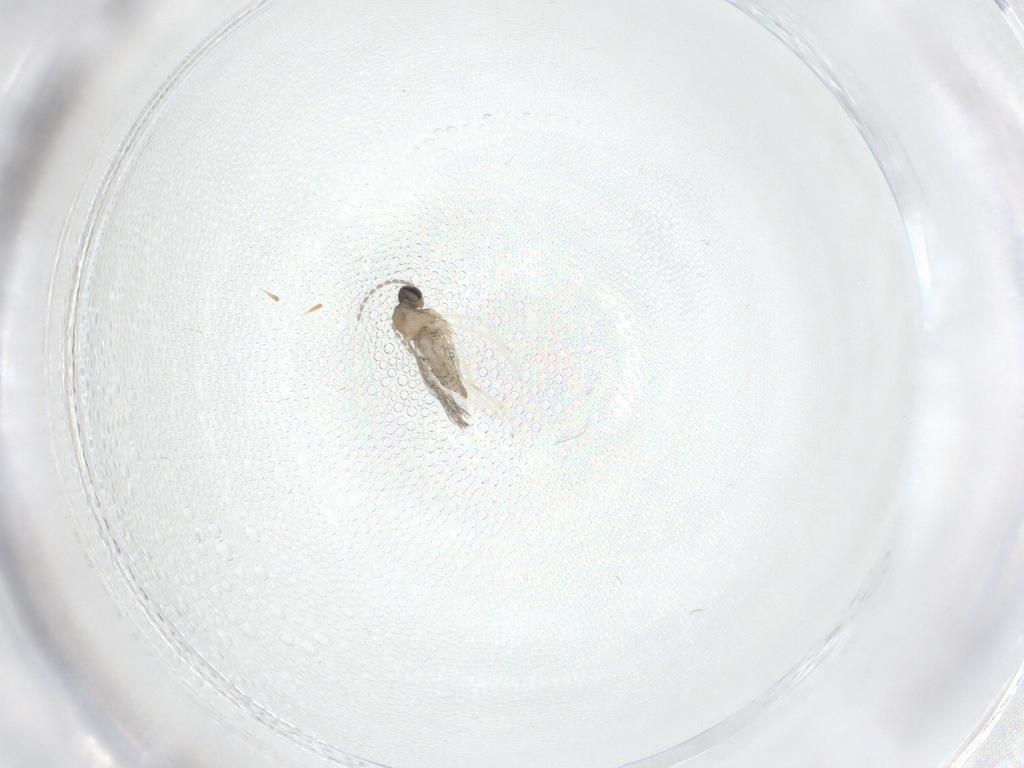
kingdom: Animalia
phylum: Arthropoda
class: Insecta
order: Diptera
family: Cecidomyiidae
